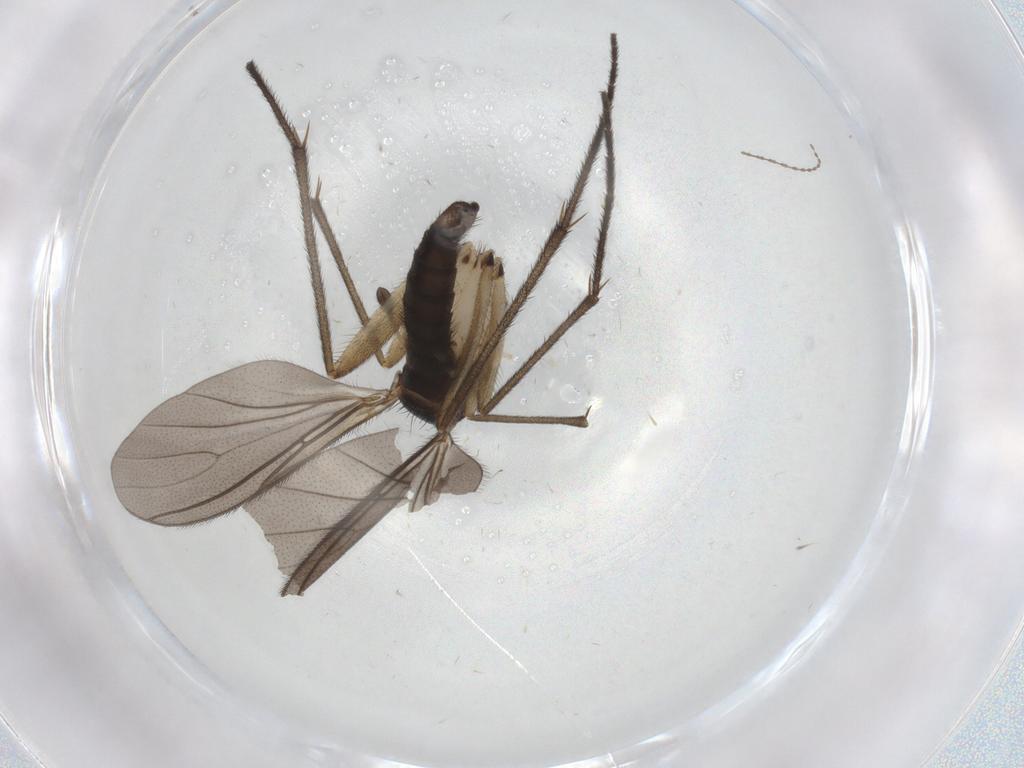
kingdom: Animalia
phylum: Arthropoda
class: Insecta
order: Diptera
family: Sciaridae
